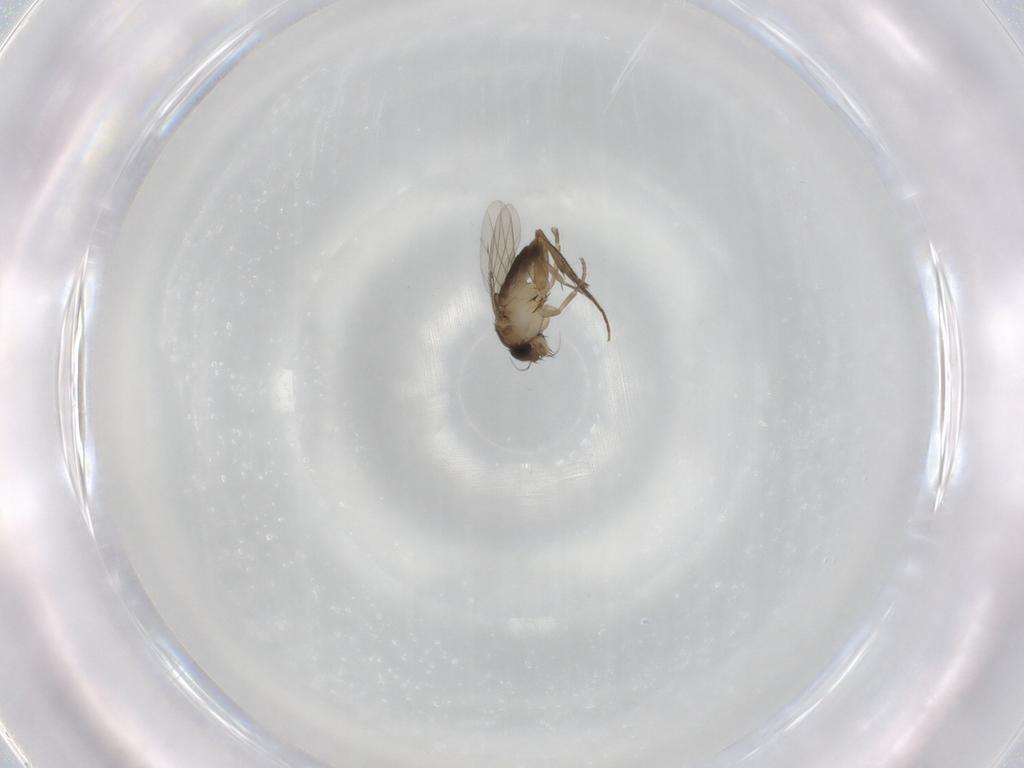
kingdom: Animalia
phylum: Arthropoda
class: Insecta
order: Diptera
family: Phoridae
